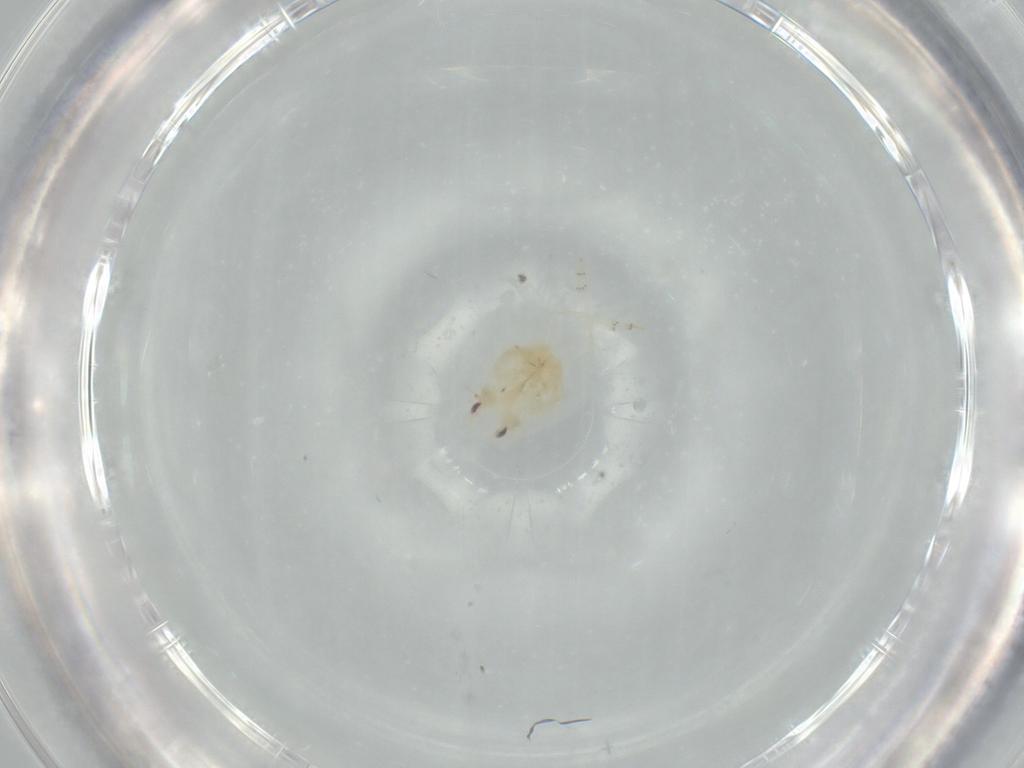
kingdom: Animalia
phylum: Arthropoda
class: Insecta
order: Hemiptera
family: Flatidae
